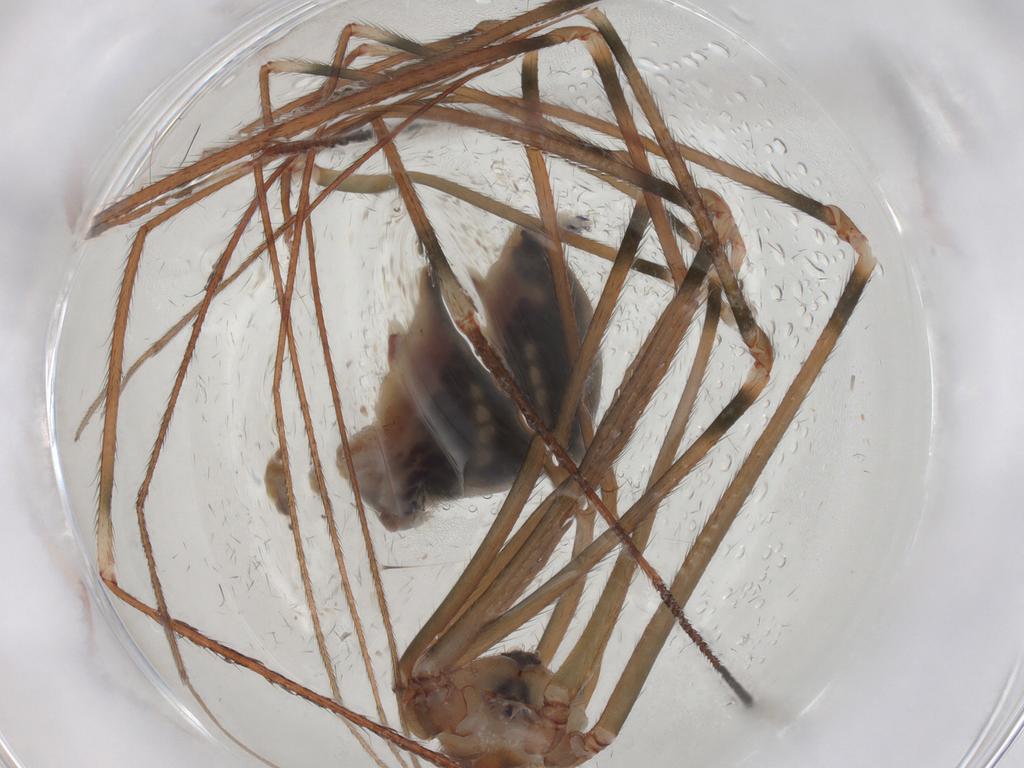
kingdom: Animalia
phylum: Arthropoda
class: Arachnida
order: Araneae
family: Pholcidae
